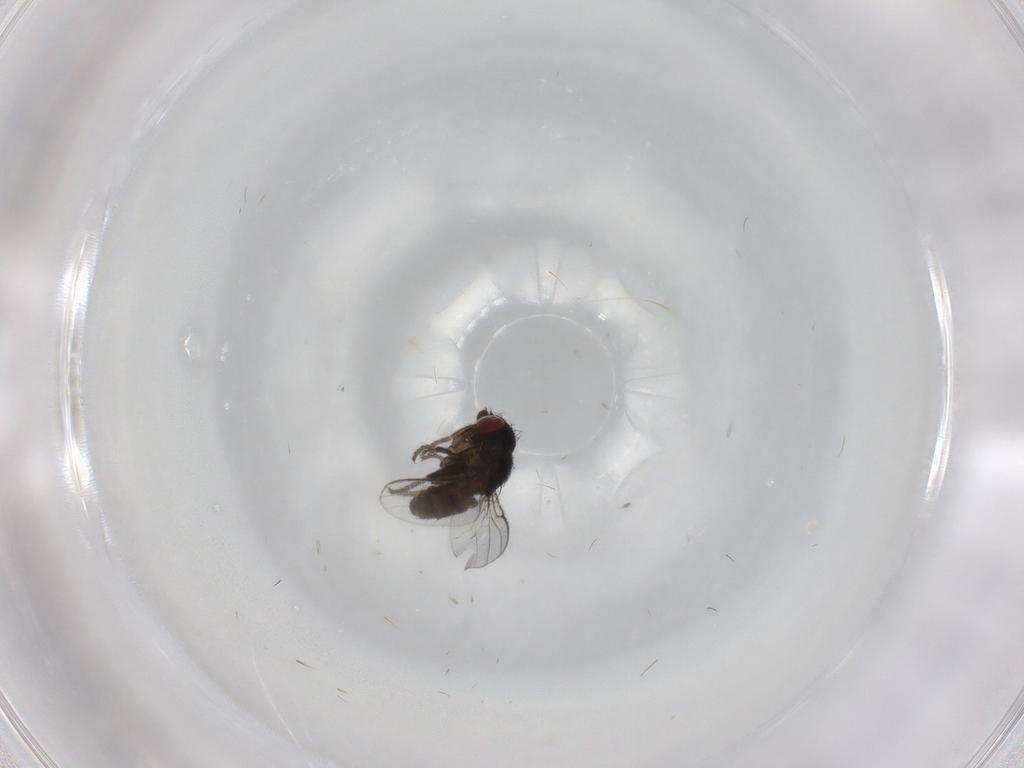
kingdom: Animalia
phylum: Arthropoda
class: Insecta
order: Diptera
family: Milichiidae
